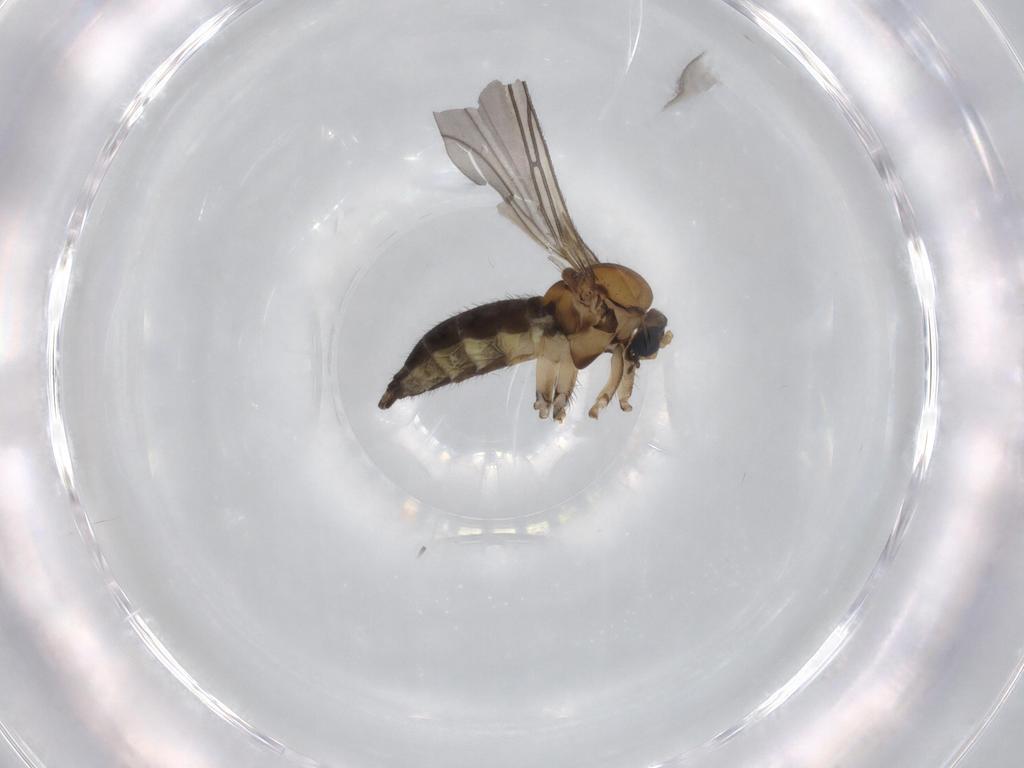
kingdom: Animalia
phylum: Arthropoda
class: Insecta
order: Diptera
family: Sciaridae
